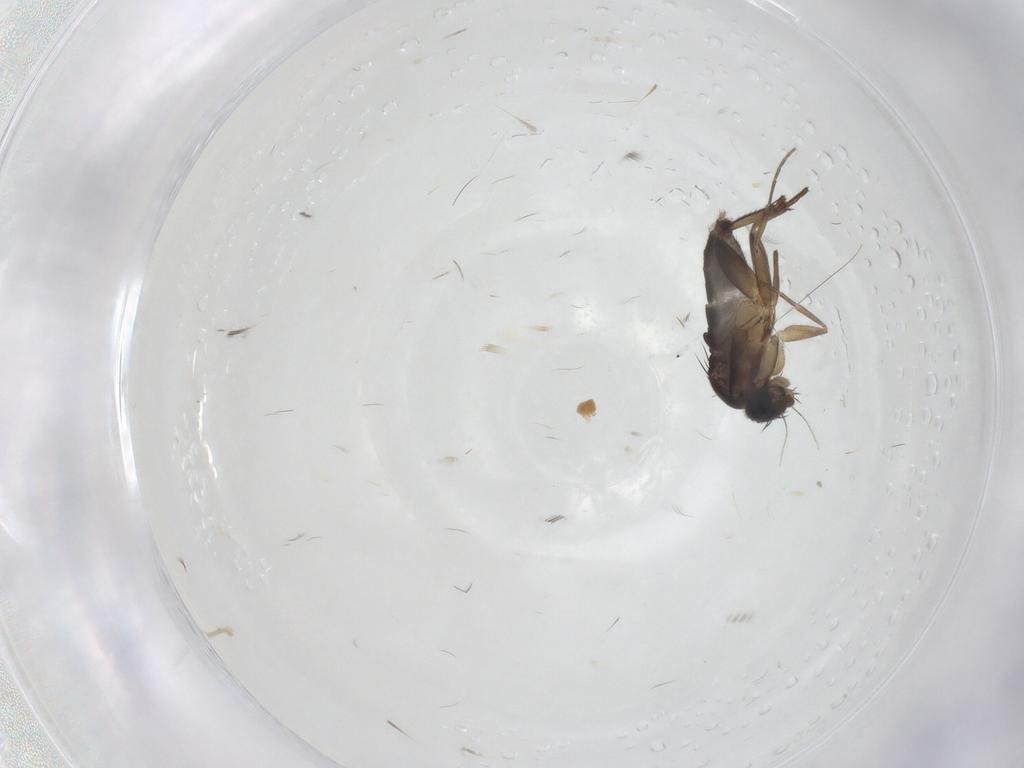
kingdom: Animalia
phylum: Arthropoda
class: Insecta
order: Diptera
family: Phoridae
